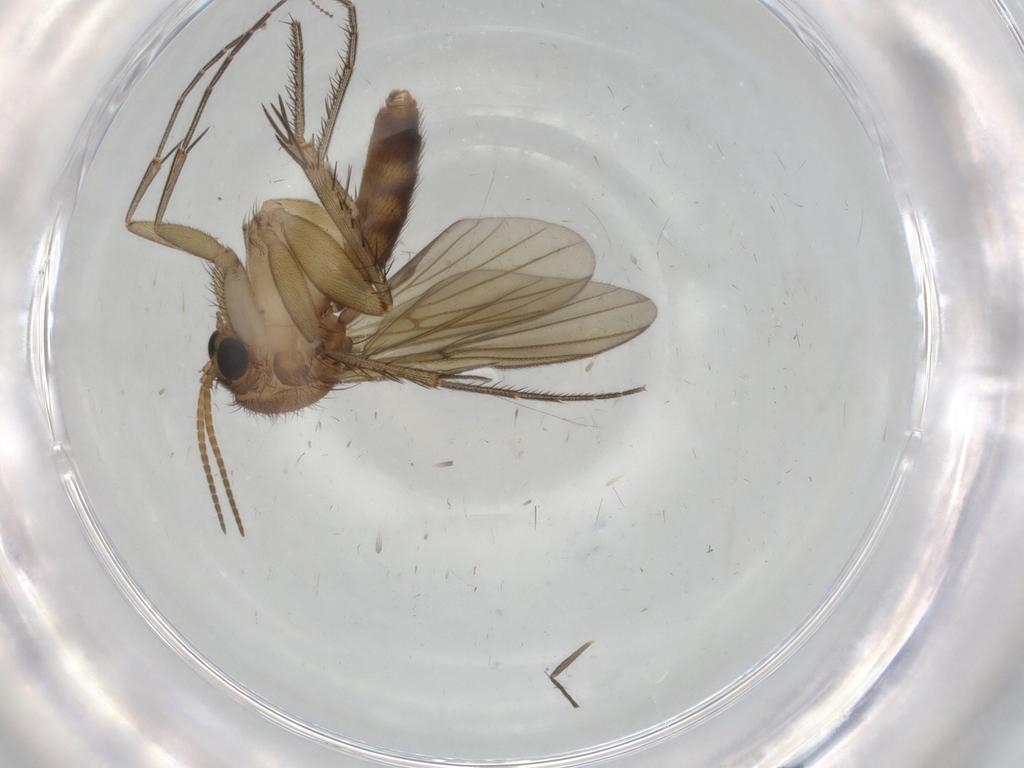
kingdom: Animalia
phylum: Arthropoda
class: Insecta
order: Diptera
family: Sciaridae
